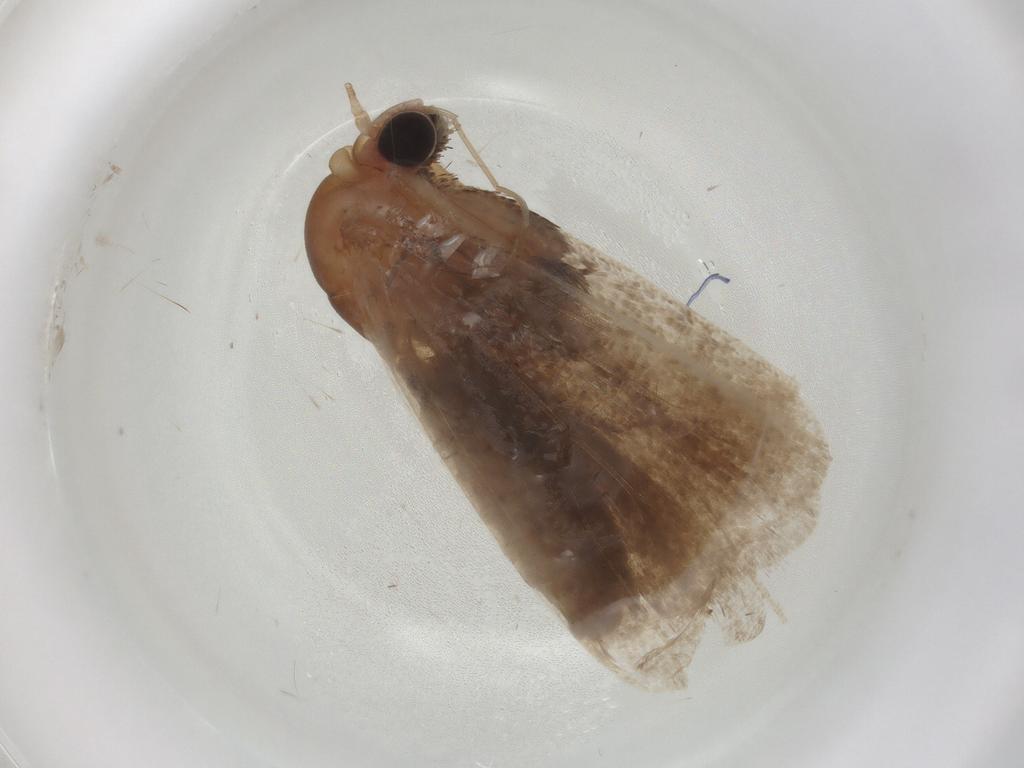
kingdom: Animalia
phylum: Arthropoda
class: Insecta
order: Lepidoptera
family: Nolidae
